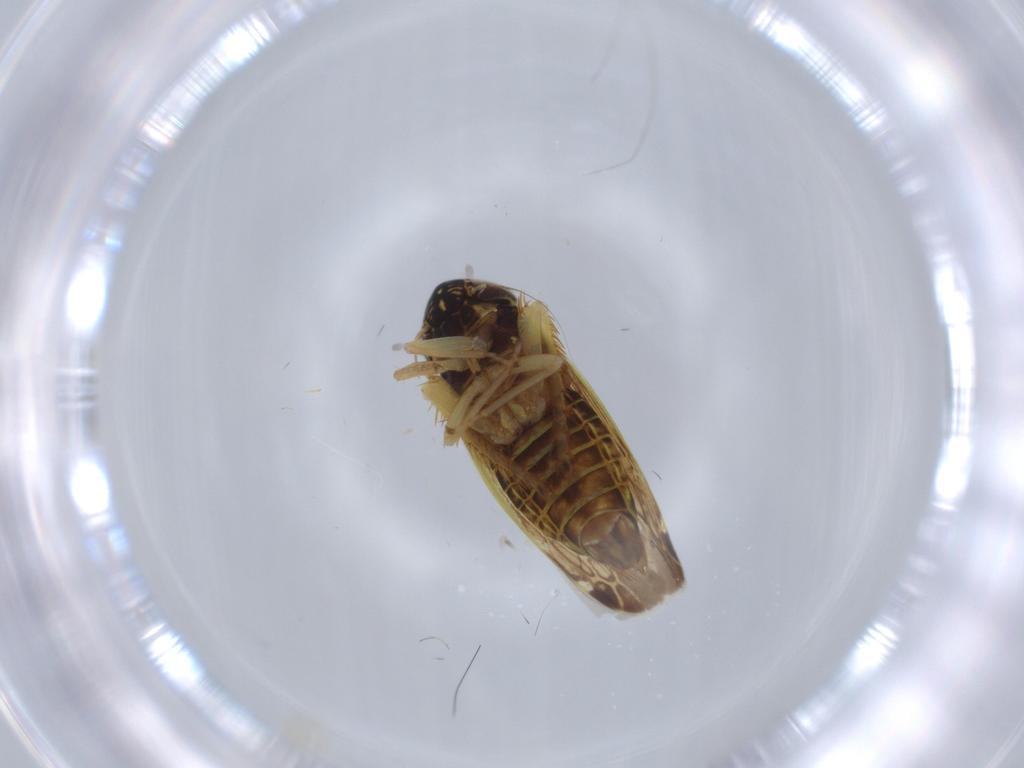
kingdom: Animalia
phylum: Arthropoda
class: Insecta
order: Hemiptera
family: Cicadellidae
